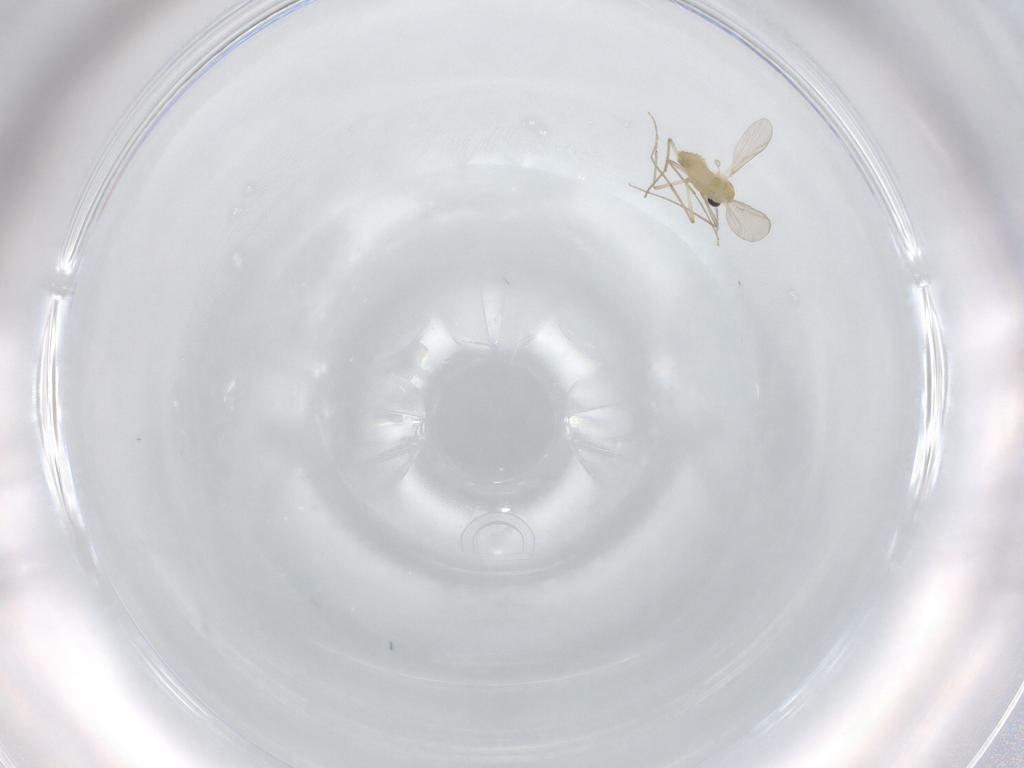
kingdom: Animalia
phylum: Arthropoda
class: Insecta
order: Diptera
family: Chironomidae
